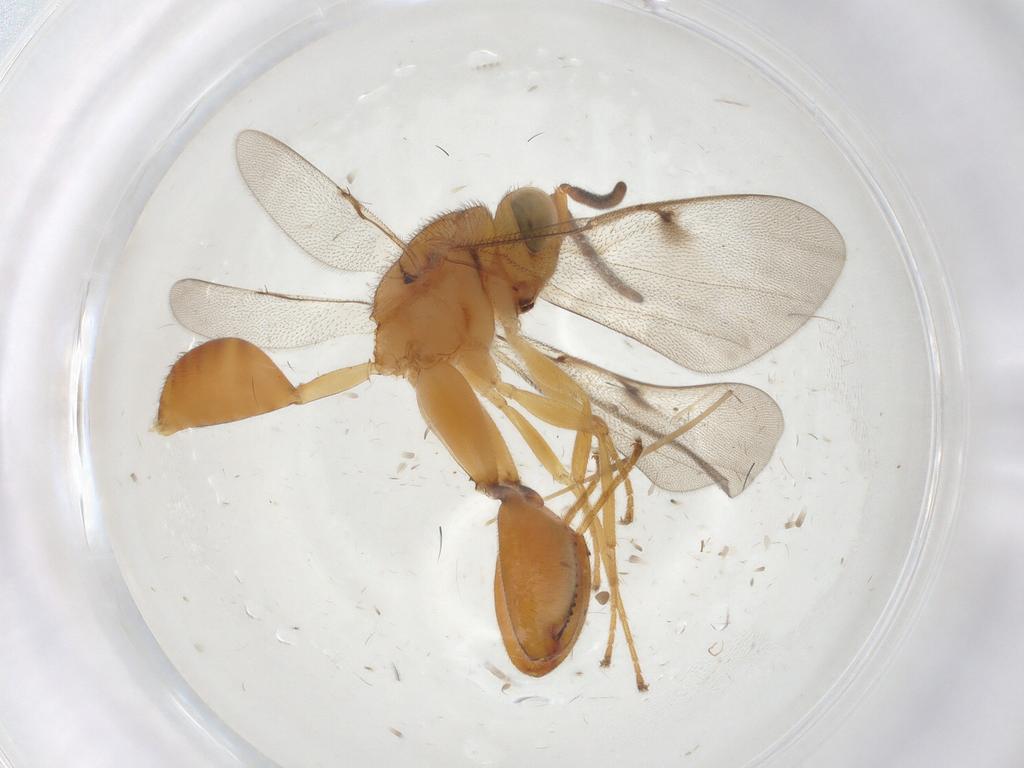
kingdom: Animalia
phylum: Arthropoda
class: Insecta
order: Hymenoptera
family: Chalcididae
